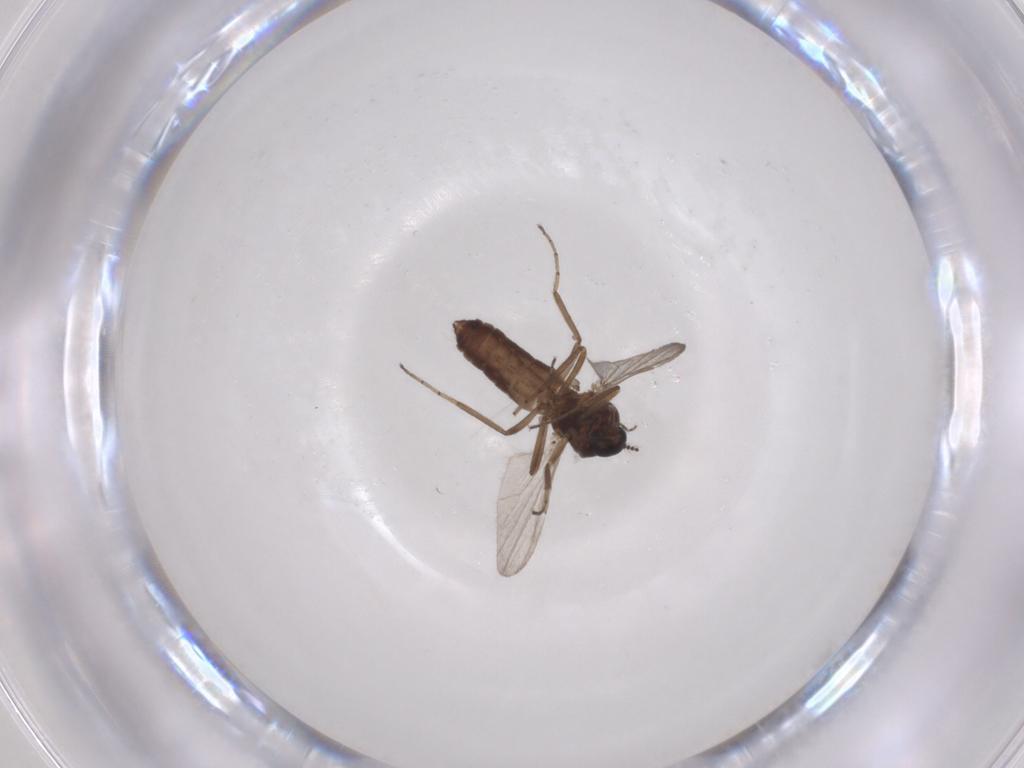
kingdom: Animalia
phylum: Arthropoda
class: Insecta
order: Diptera
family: Ceratopogonidae
